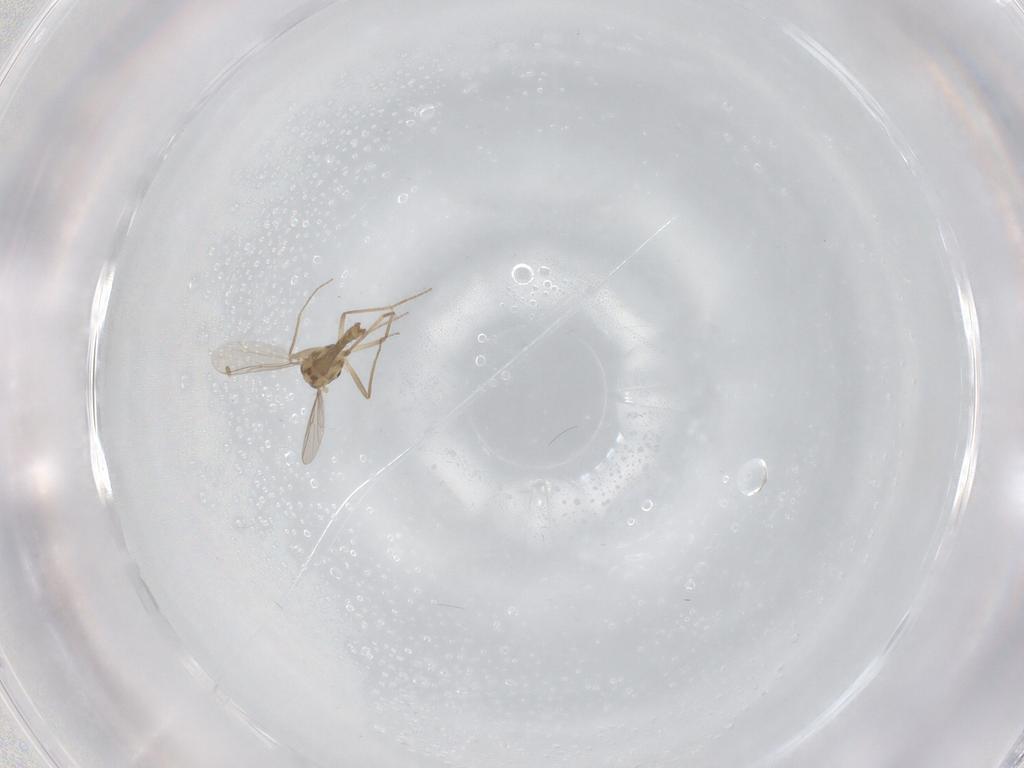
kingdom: Animalia
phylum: Arthropoda
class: Insecta
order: Diptera
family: Chironomidae
